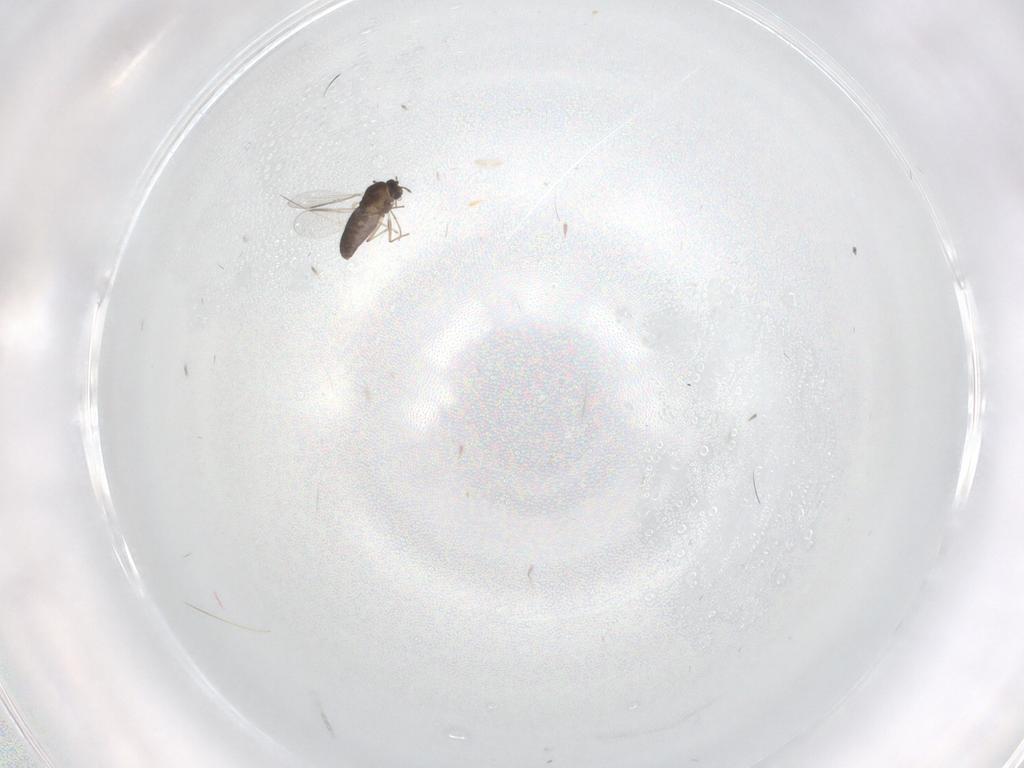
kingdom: Animalia
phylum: Arthropoda
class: Insecta
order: Diptera
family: Chironomidae
